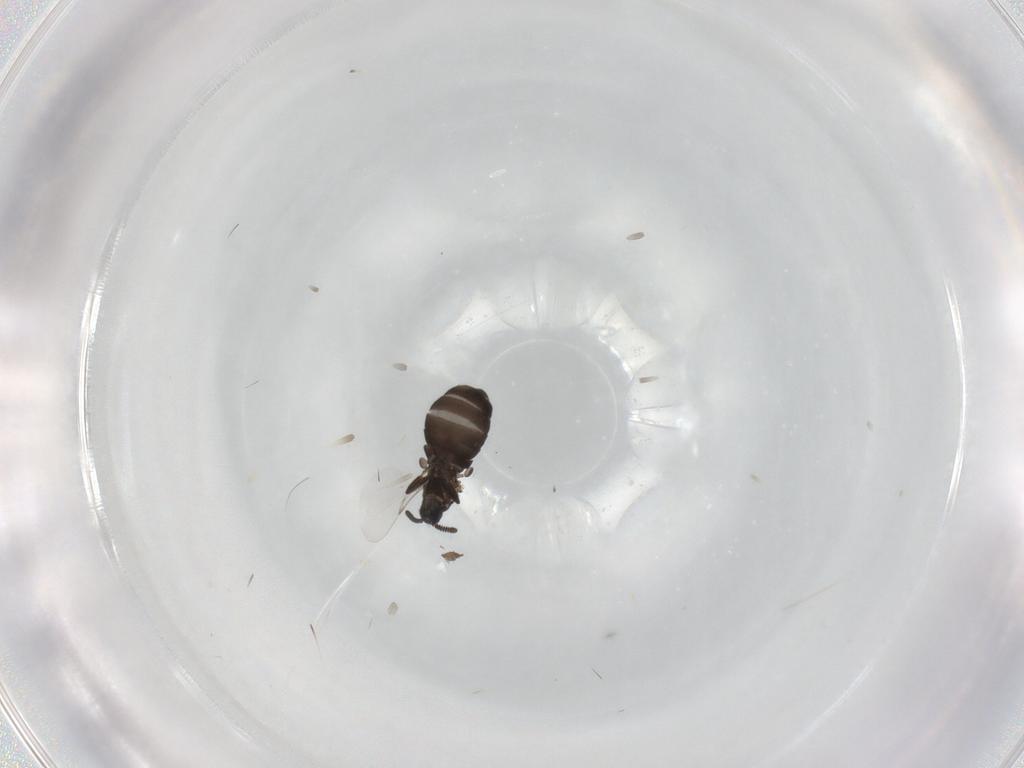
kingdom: Animalia
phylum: Arthropoda
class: Insecta
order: Diptera
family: Scatopsidae
